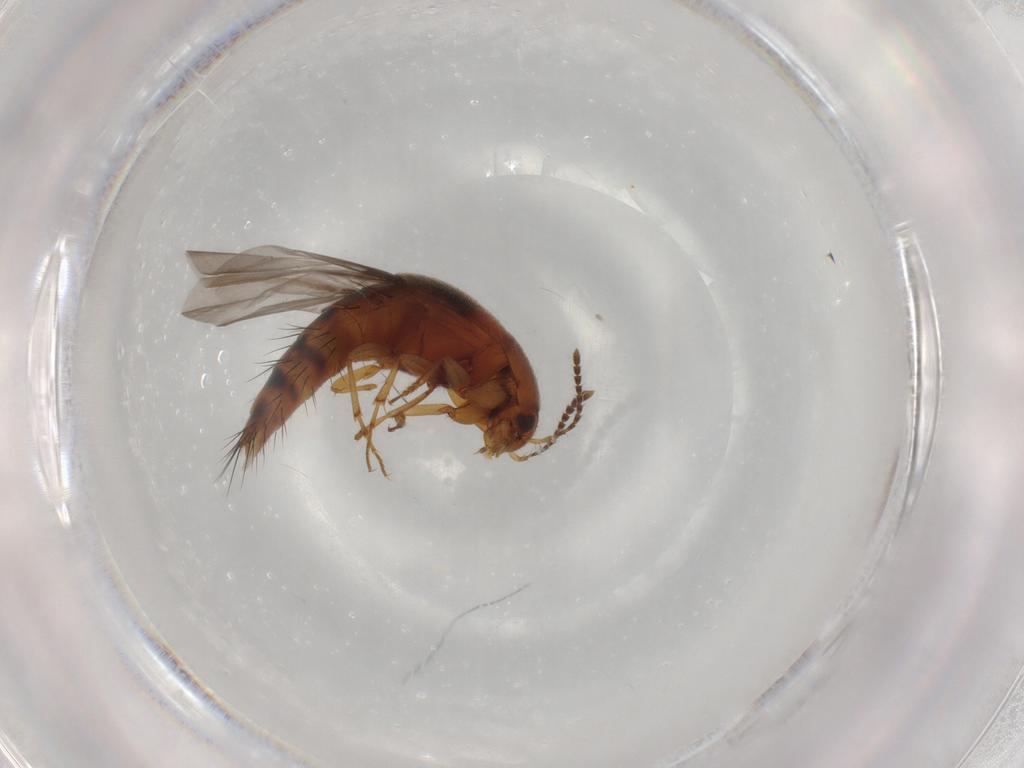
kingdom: Animalia
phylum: Arthropoda
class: Insecta
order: Coleoptera
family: Staphylinidae
